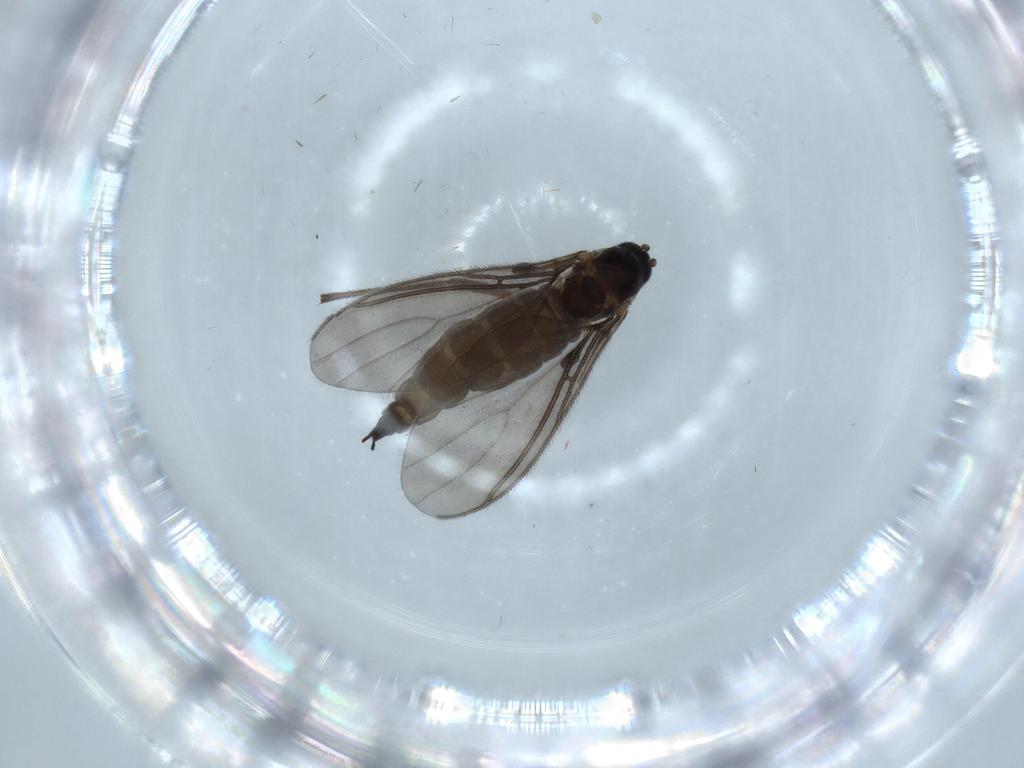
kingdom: Animalia
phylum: Arthropoda
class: Insecta
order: Diptera
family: Sciaridae
